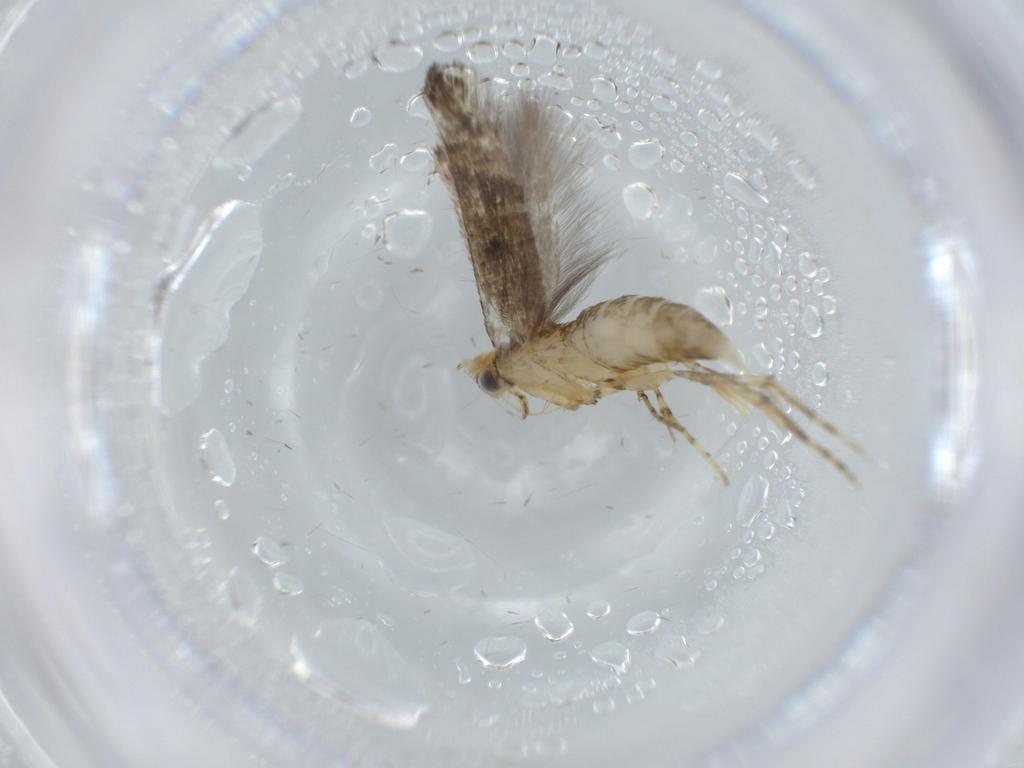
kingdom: Animalia
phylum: Arthropoda
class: Insecta
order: Lepidoptera
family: Argyresthiidae
